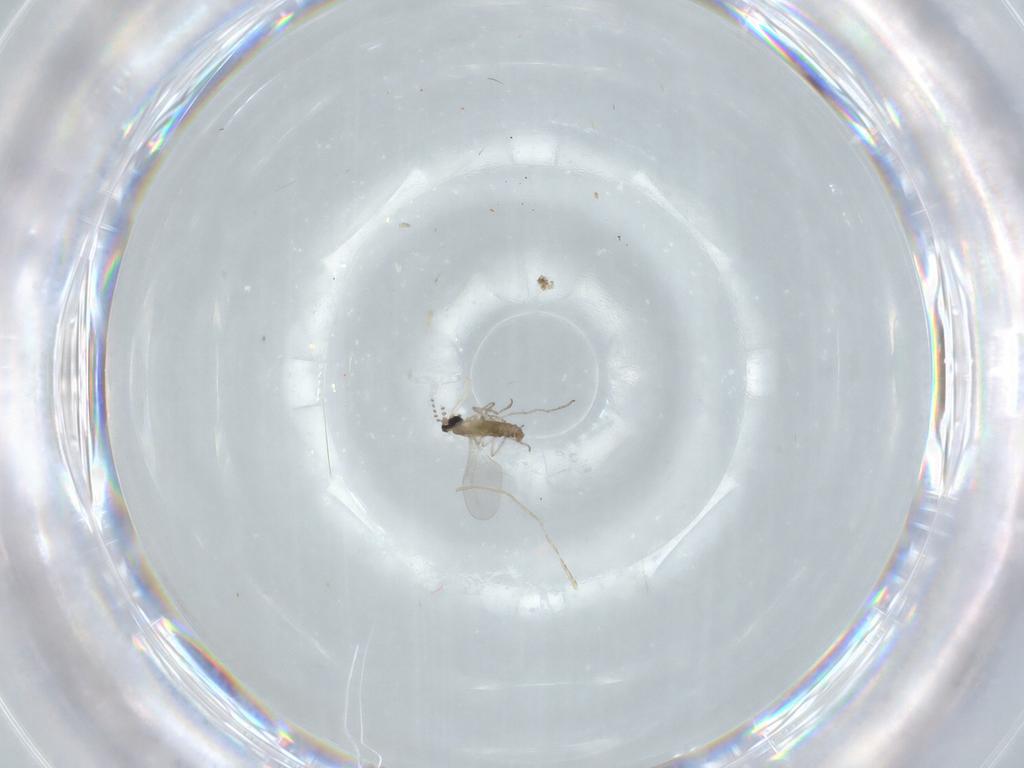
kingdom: Animalia
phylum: Arthropoda
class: Insecta
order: Diptera
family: Cecidomyiidae
